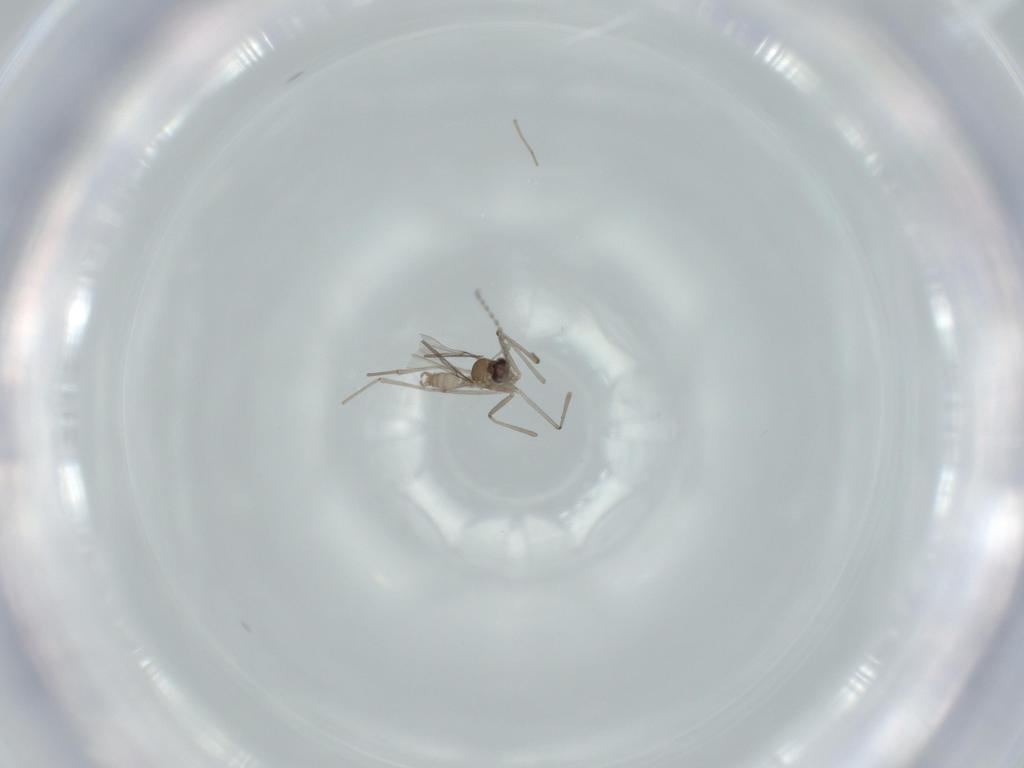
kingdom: Animalia
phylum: Arthropoda
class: Insecta
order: Diptera
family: Cecidomyiidae
